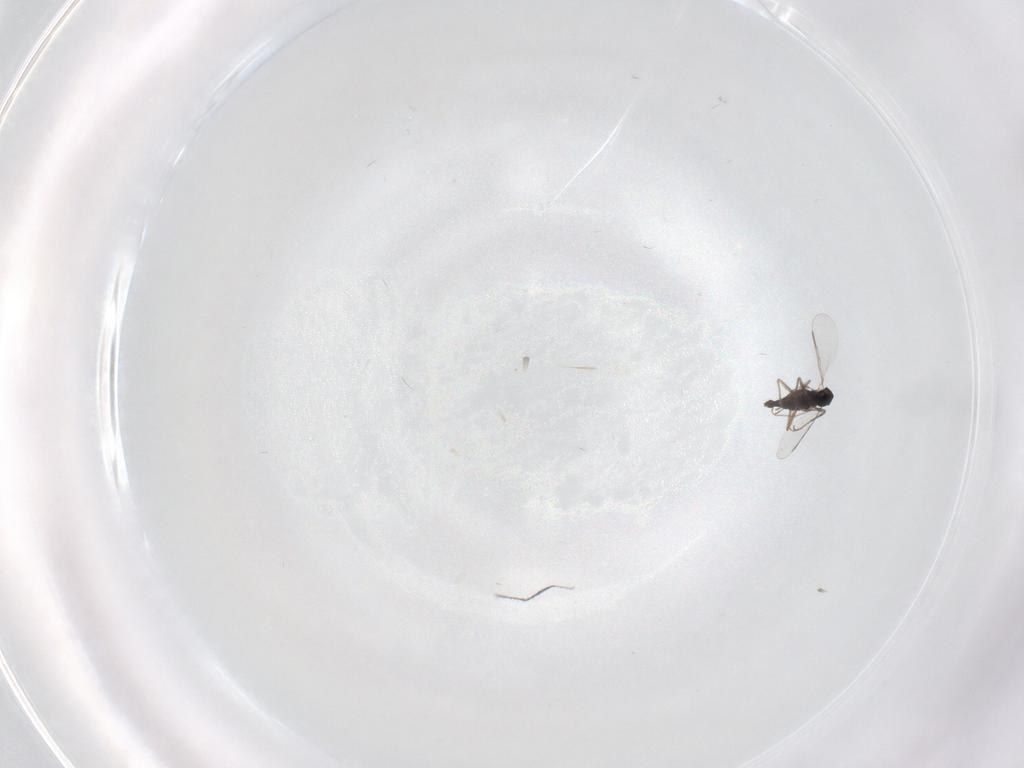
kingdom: Animalia
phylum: Arthropoda
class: Insecta
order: Diptera
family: Chironomidae
